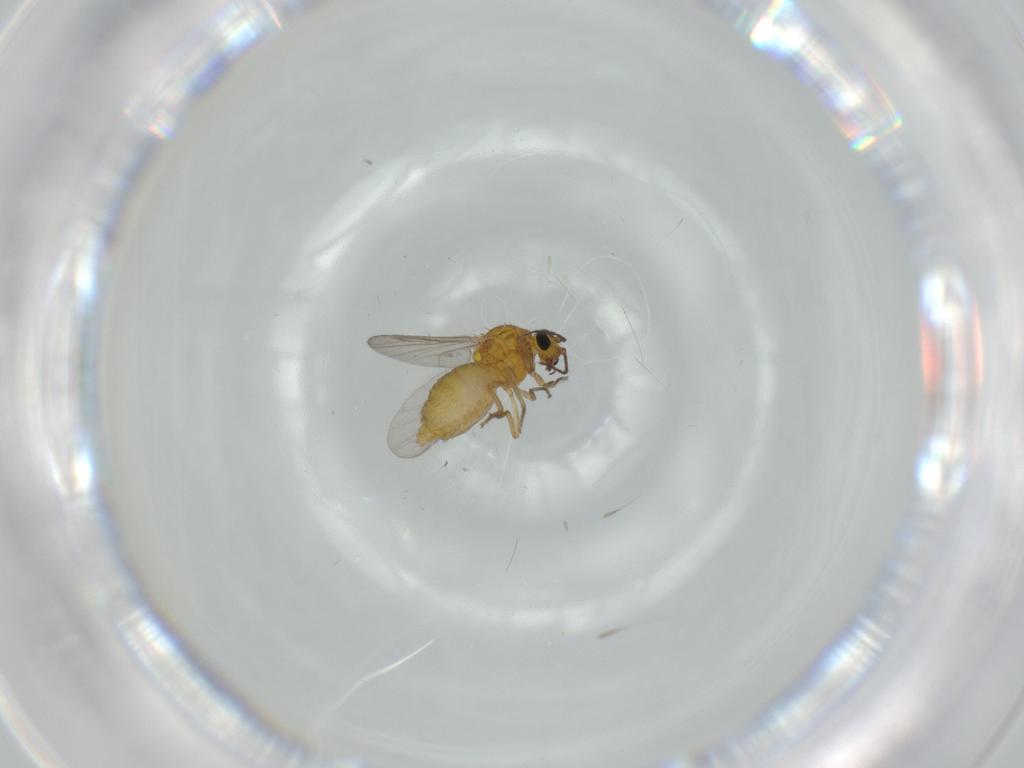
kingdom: Animalia
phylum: Arthropoda
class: Insecta
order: Diptera
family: Ceratopogonidae
